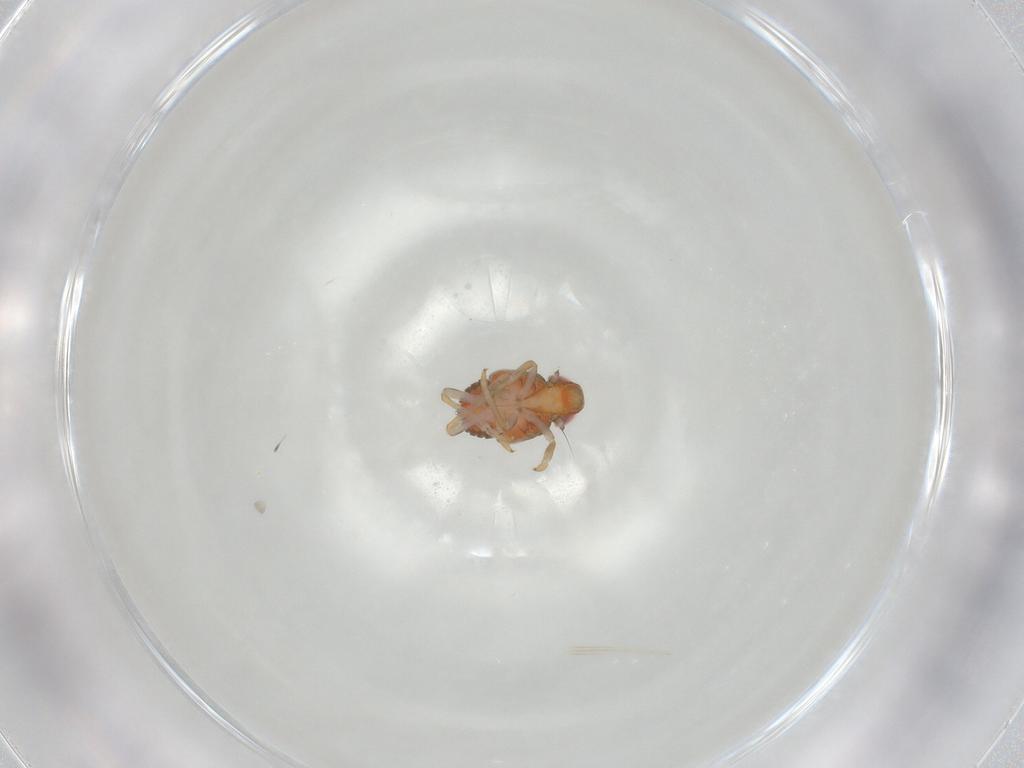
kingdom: Animalia
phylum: Arthropoda
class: Insecta
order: Hemiptera
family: Issidae
